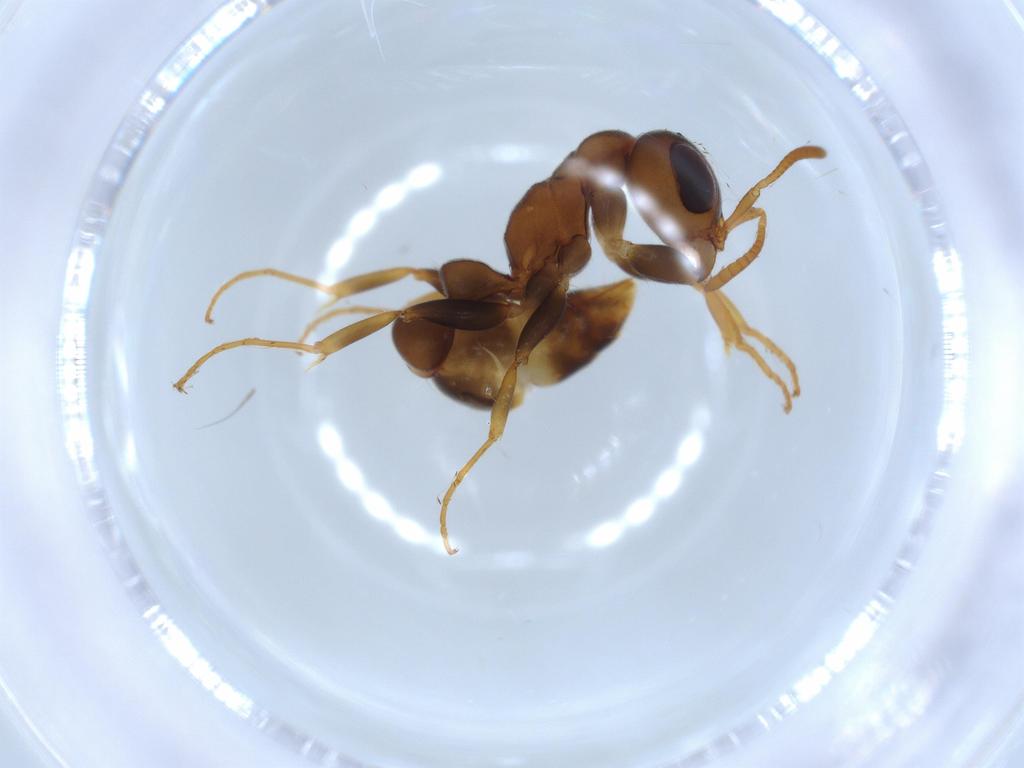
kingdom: Animalia
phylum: Arthropoda
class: Insecta
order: Hymenoptera
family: Formicidae
